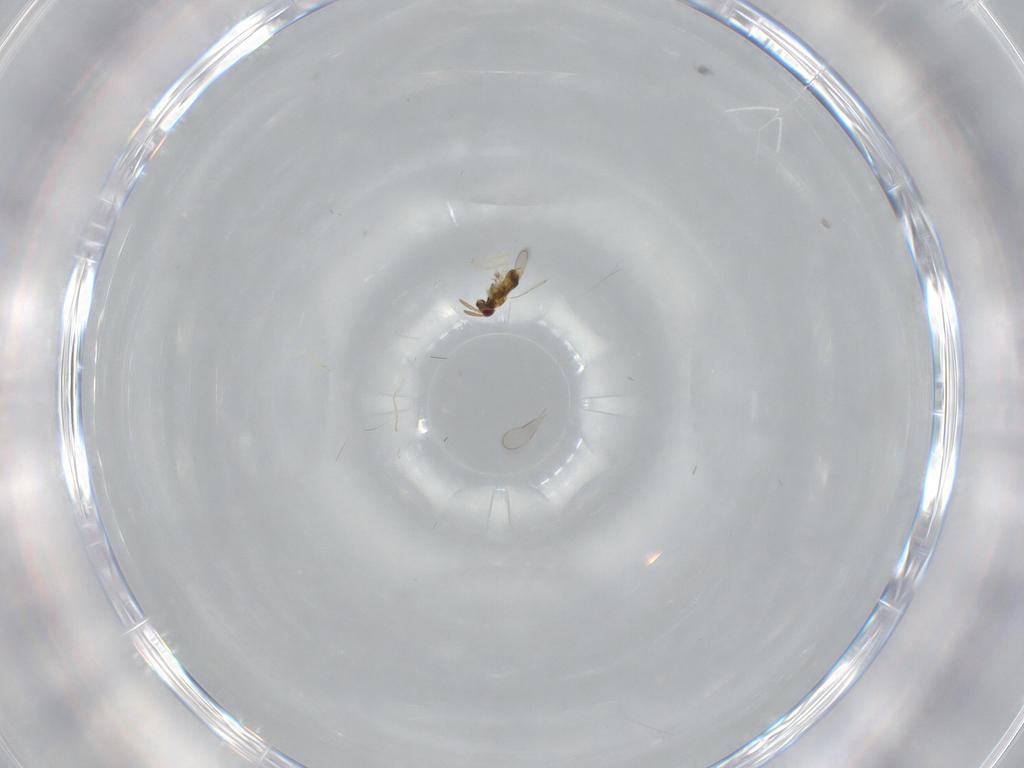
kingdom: Animalia
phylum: Arthropoda
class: Insecta
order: Hymenoptera
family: Aphelinidae
